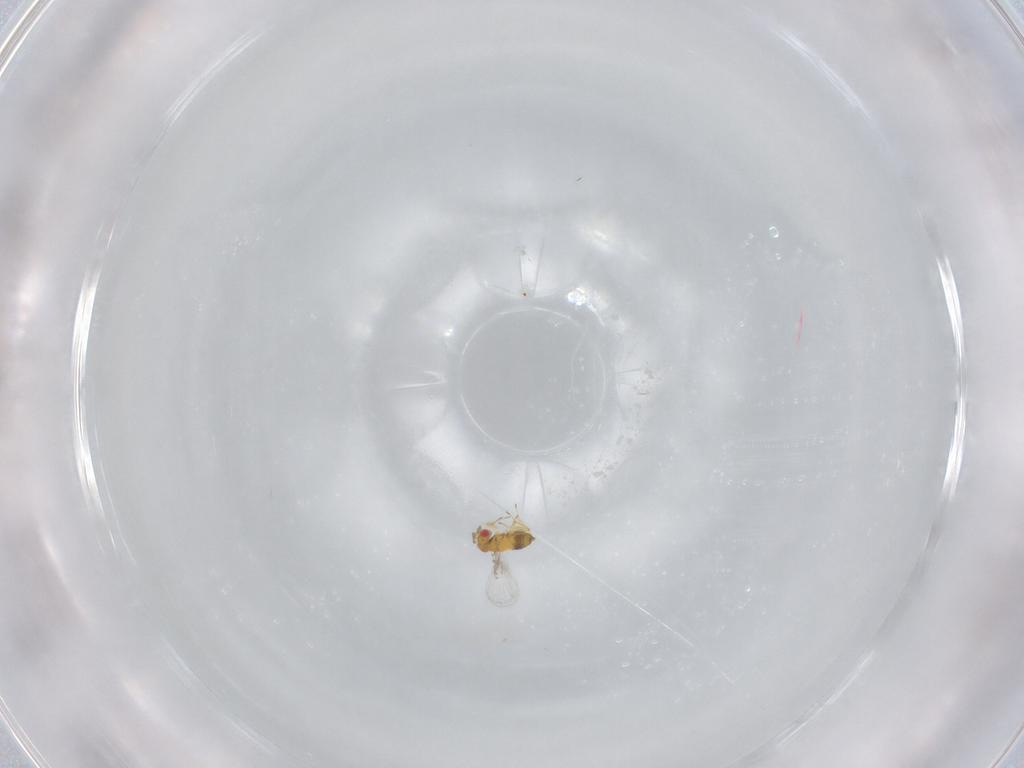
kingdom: Animalia
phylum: Arthropoda
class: Insecta
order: Hymenoptera
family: Trichogrammatidae
